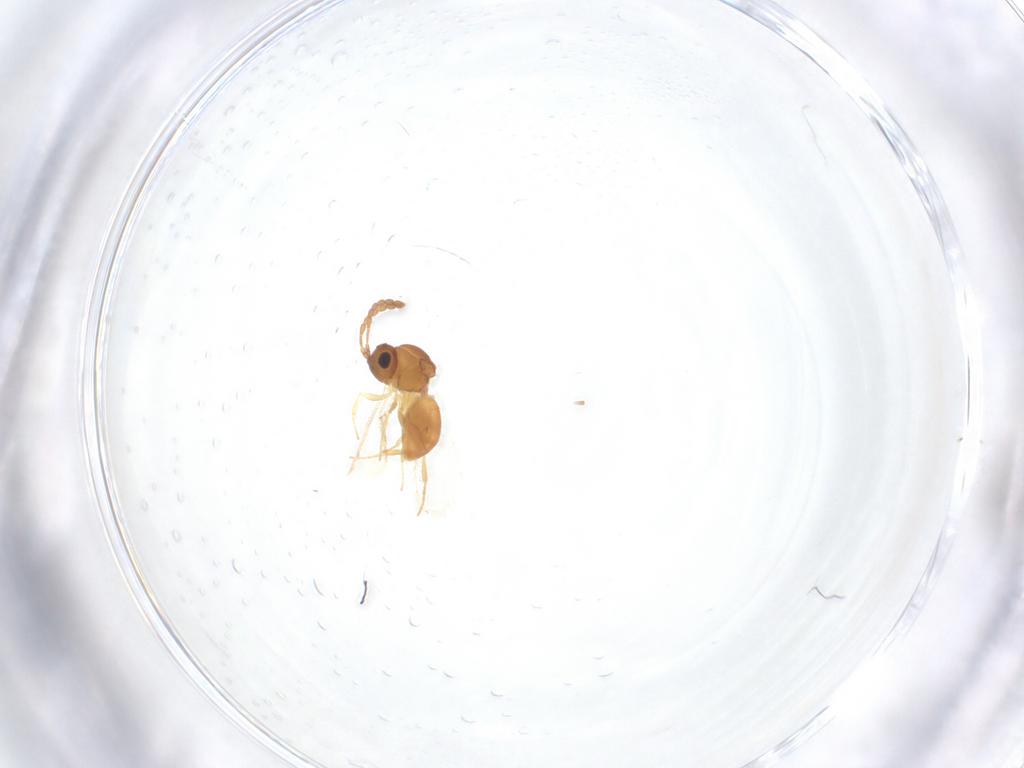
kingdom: Animalia
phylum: Arthropoda
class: Insecta
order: Hymenoptera
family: Figitidae
